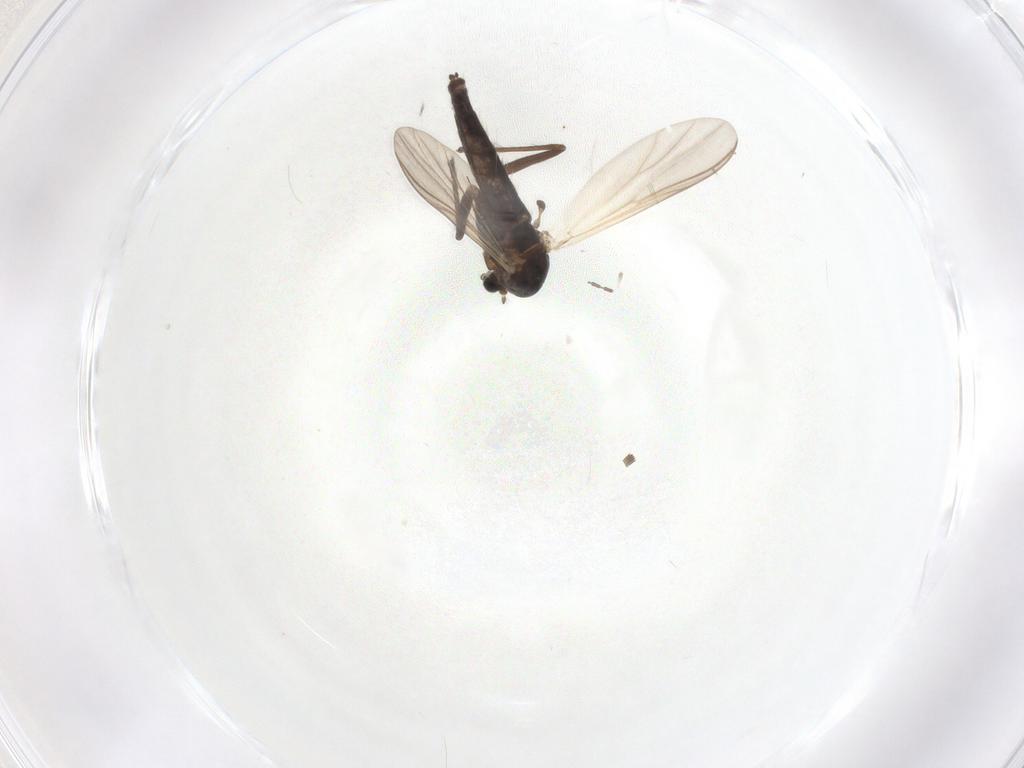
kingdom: Animalia
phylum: Arthropoda
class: Insecta
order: Diptera
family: Chironomidae
